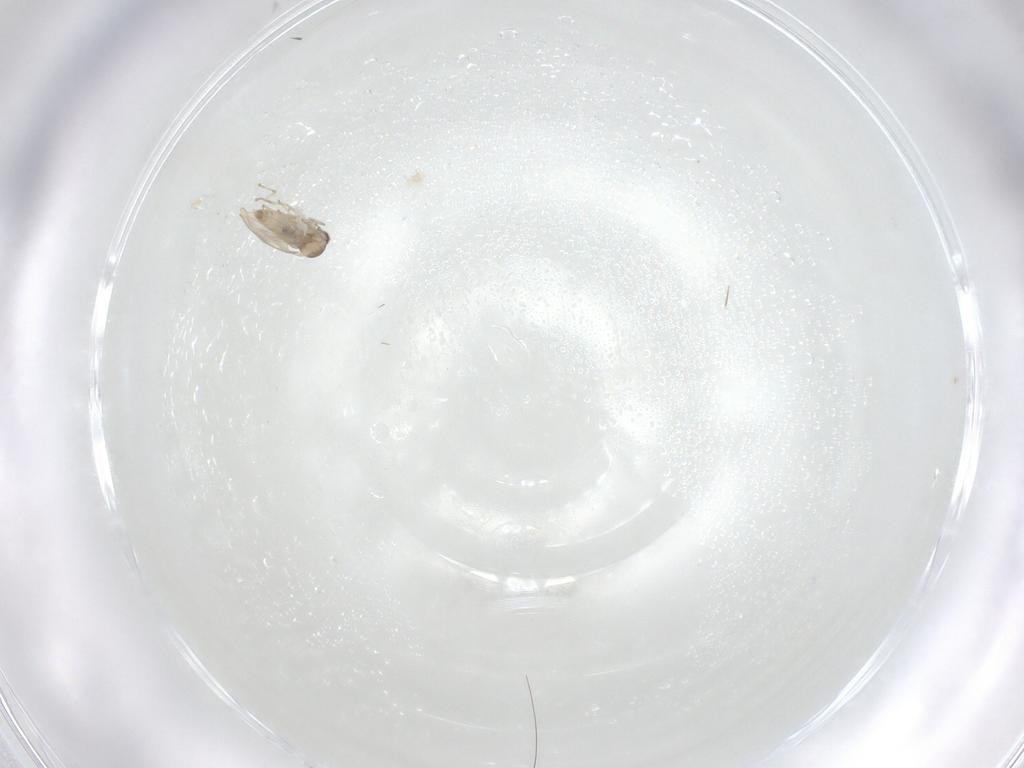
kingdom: Animalia
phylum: Arthropoda
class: Insecta
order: Diptera
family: Cecidomyiidae
